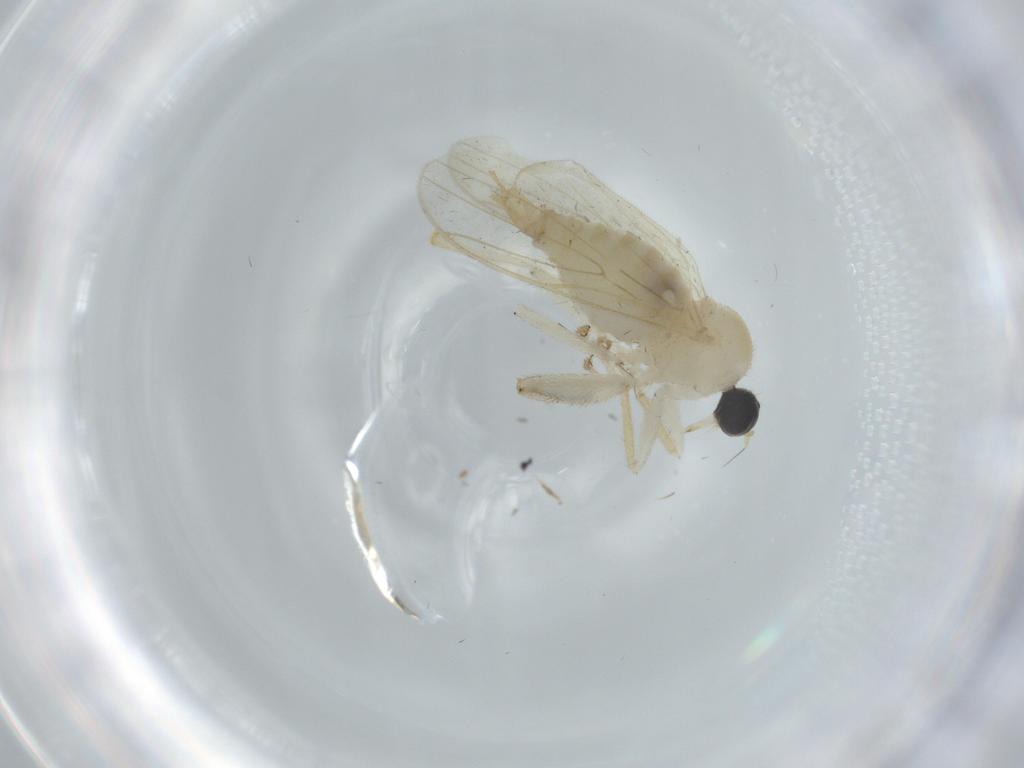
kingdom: Animalia
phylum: Arthropoda
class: Insecta
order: Diptera
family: Hybotidae
